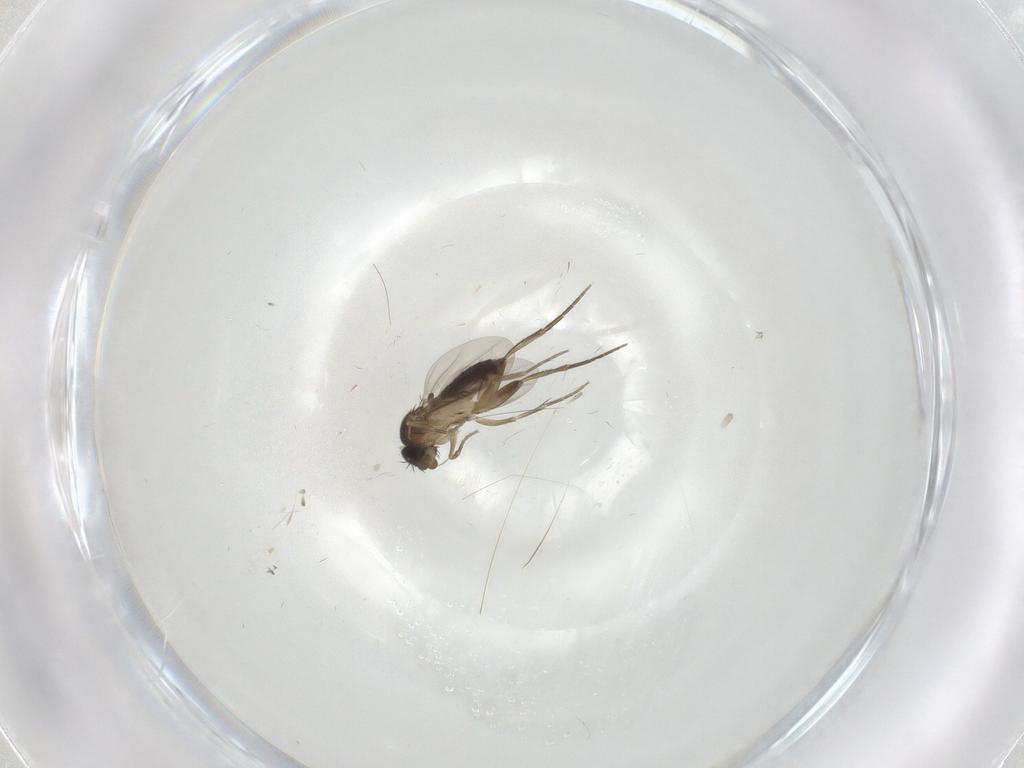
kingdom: Animalia
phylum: Arthropoda
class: Insecta
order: Diptera
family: Phoridae
